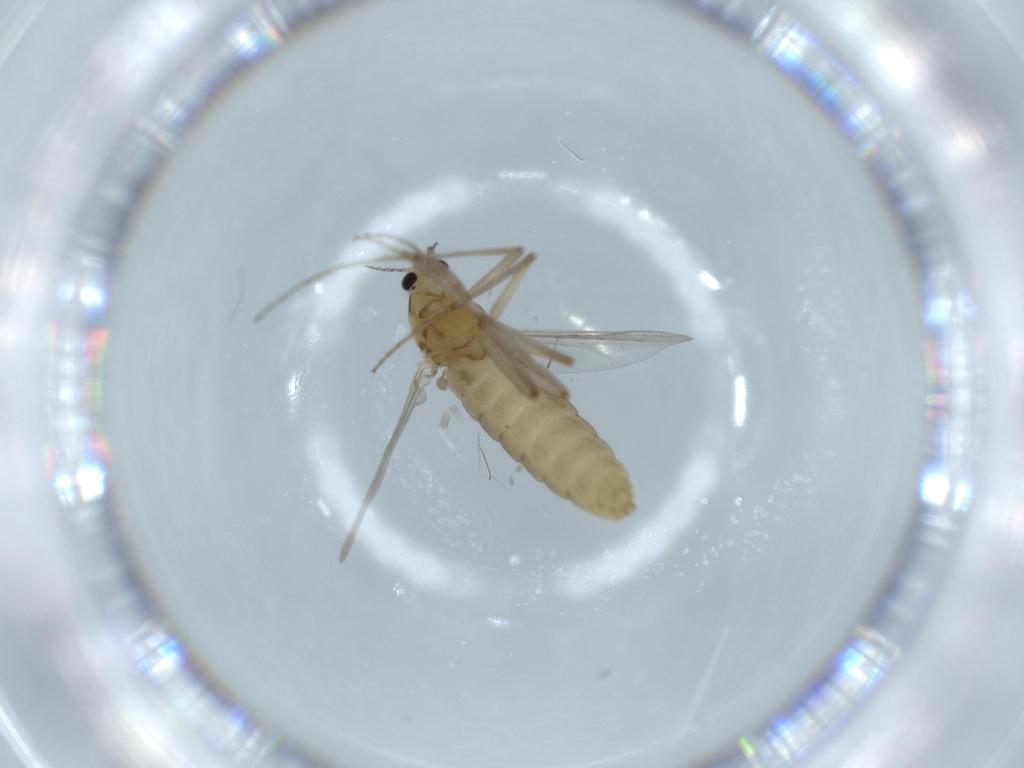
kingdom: Animalia
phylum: Arthropoda
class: Insecta
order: Diptera
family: Chironomidae
